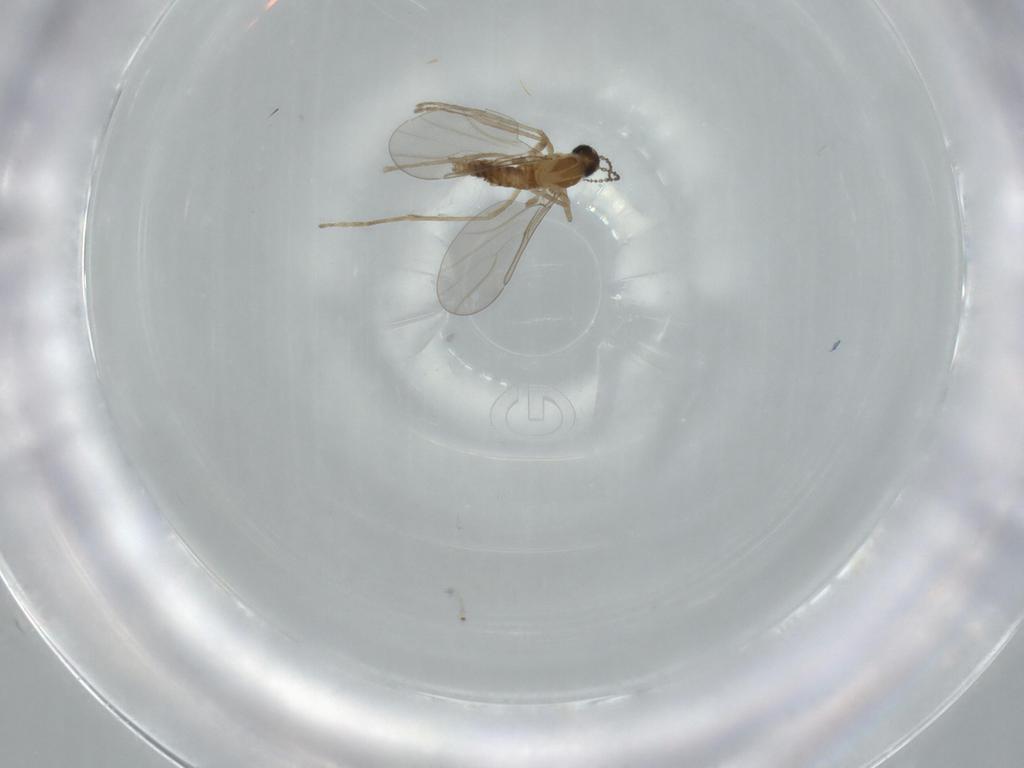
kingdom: Animalia
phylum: Arthropoda
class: Insecta
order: Diptera
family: Cecidomyiidae
